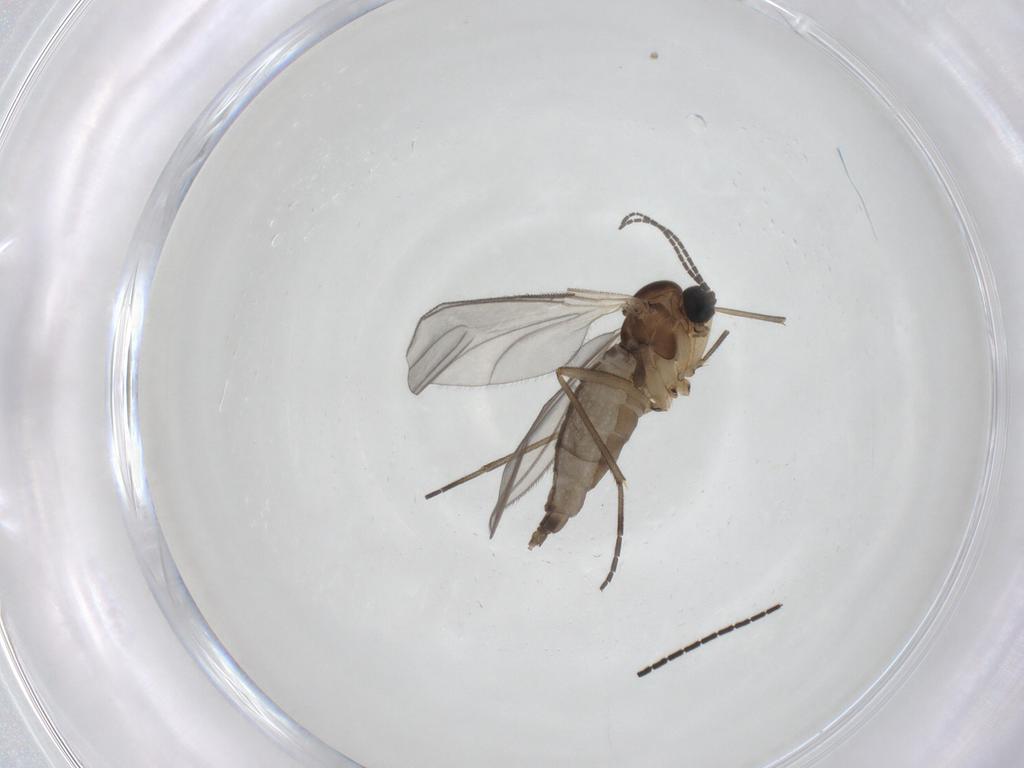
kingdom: Animalia
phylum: Arthropoda
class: Insecta
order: Diptera
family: Sciaridae
